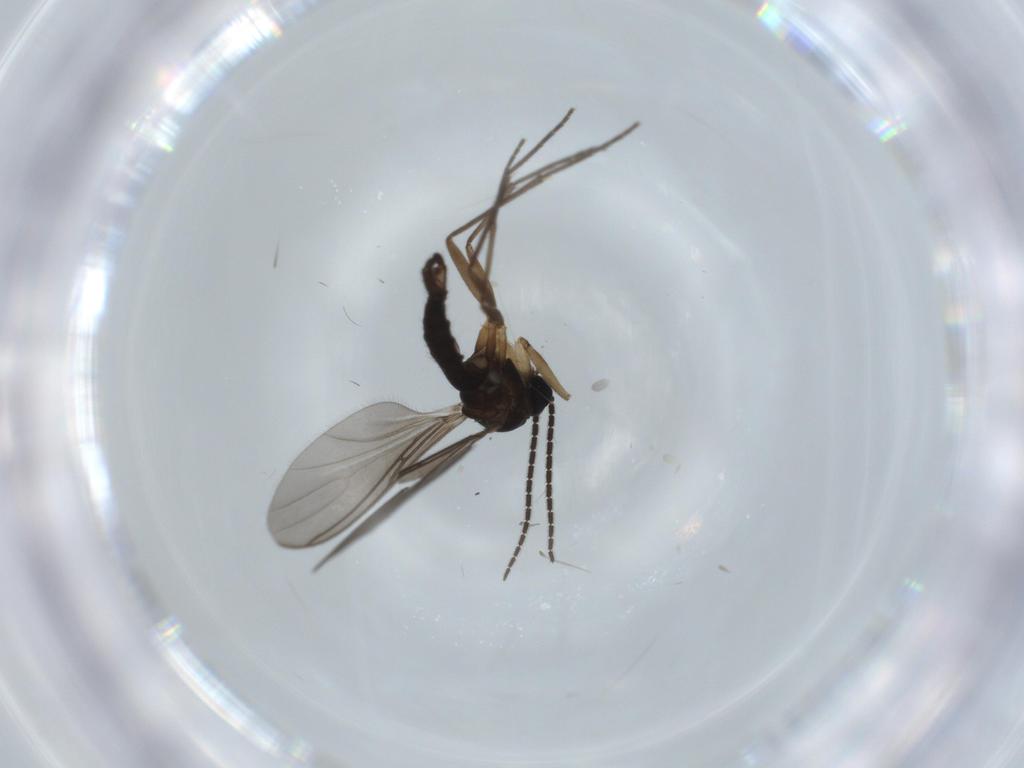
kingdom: Animalia
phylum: Arthropoda
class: Insecta
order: Diptera
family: Sciaridae
